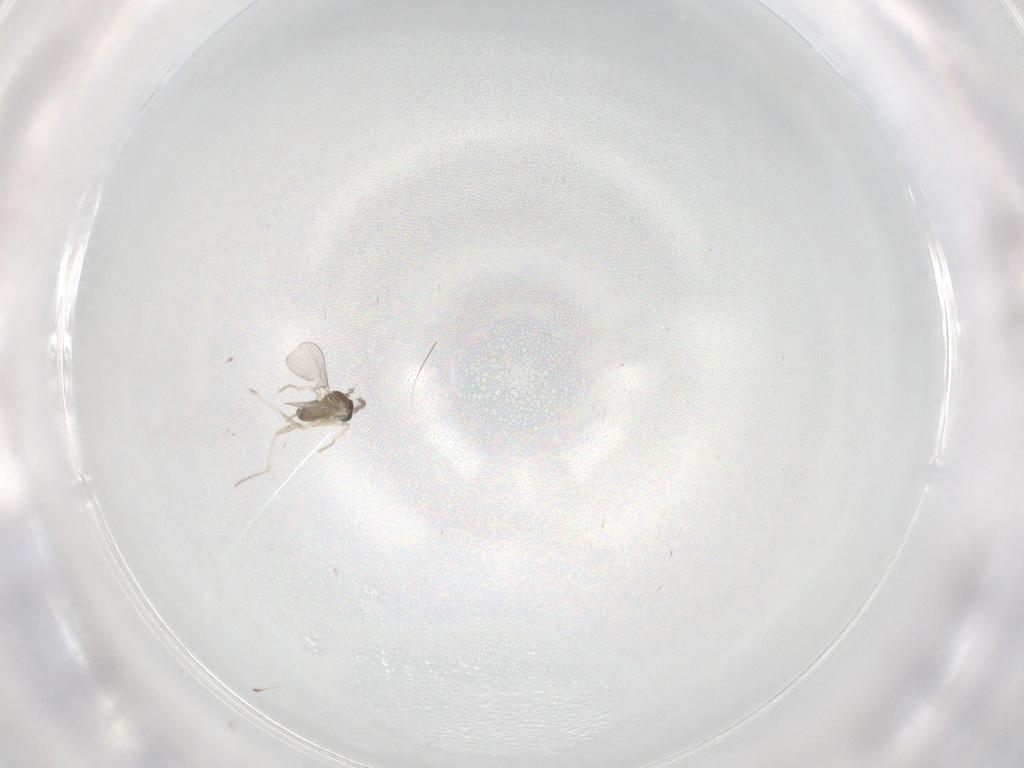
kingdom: Animalia
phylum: Arthropoda
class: Insecta
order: Diptera
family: Cecidomyiidae
